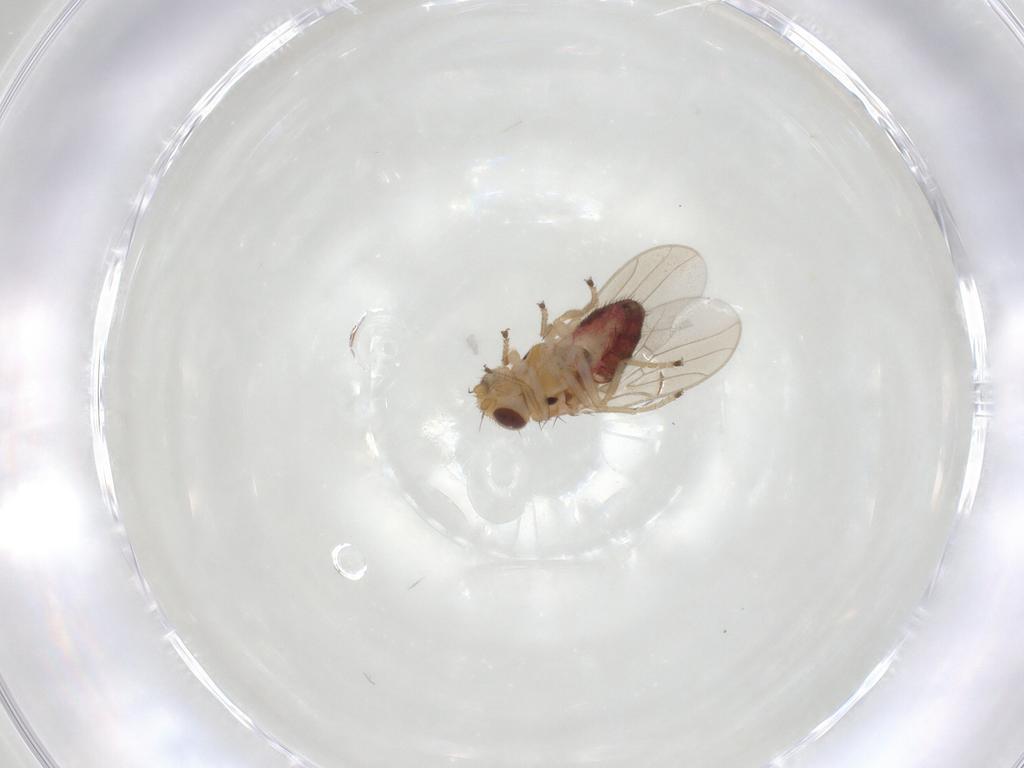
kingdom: Animalia
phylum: Arthropoda
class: Insecta
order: Diptera
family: Chloropidae
